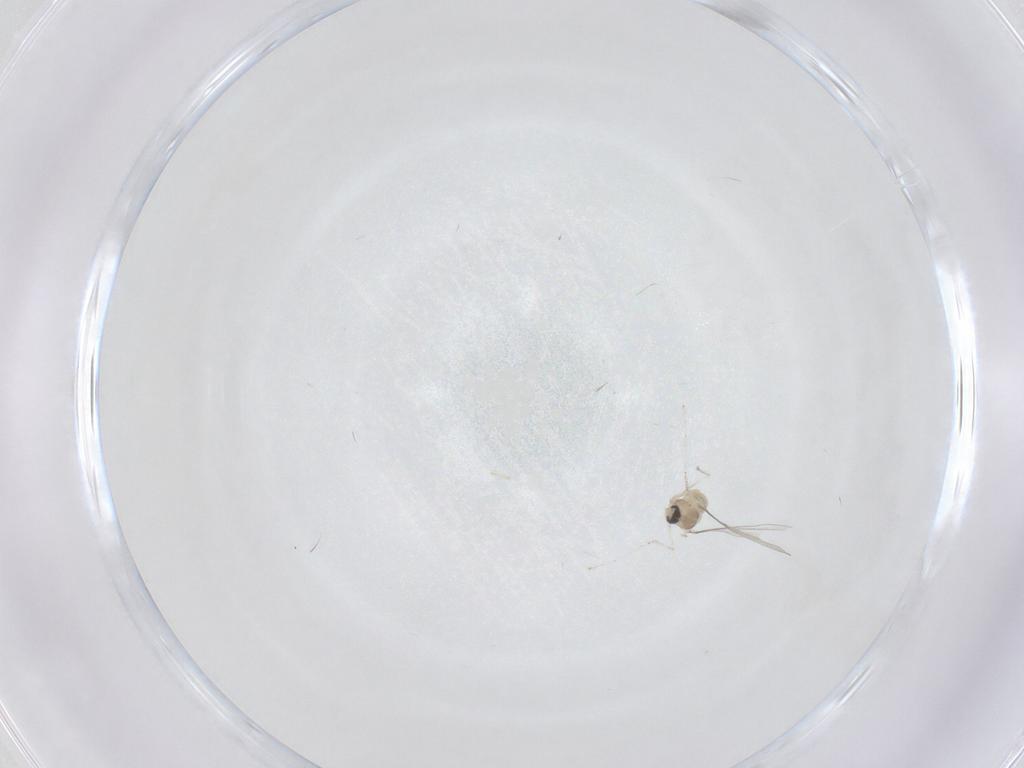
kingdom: Animalia
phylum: Arthropoda
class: Insecta
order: Diptera
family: Cecidomyiidae
